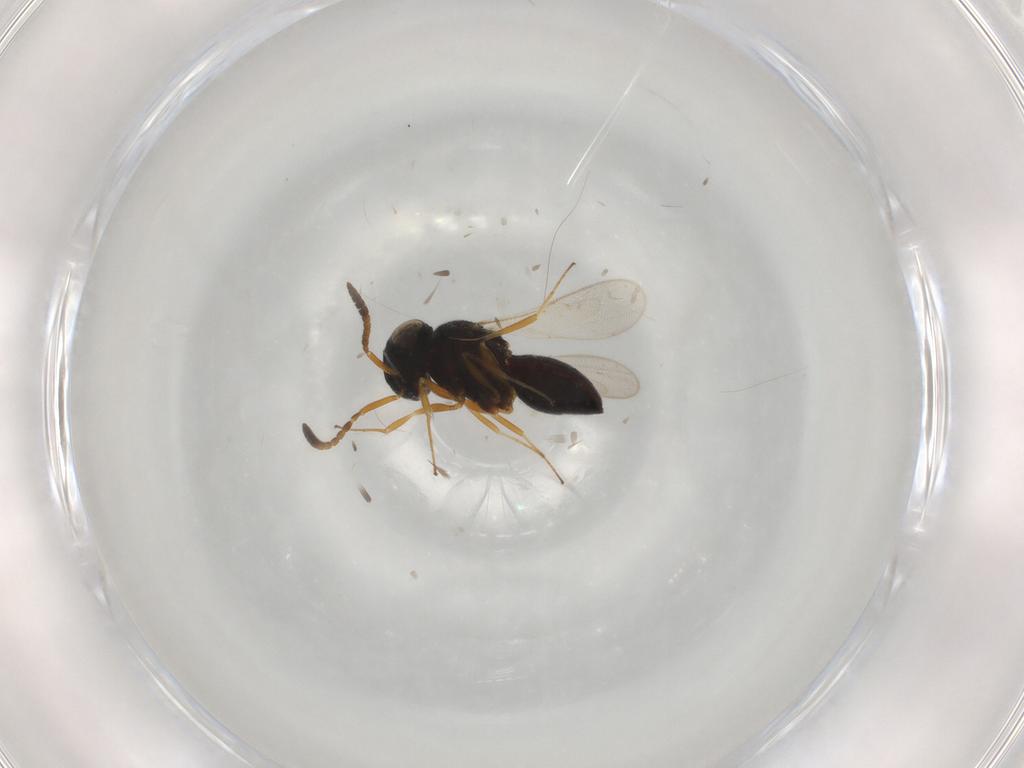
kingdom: Animalia
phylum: Arthropoda
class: Insecta
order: Hymenoptera
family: Scelionidae
